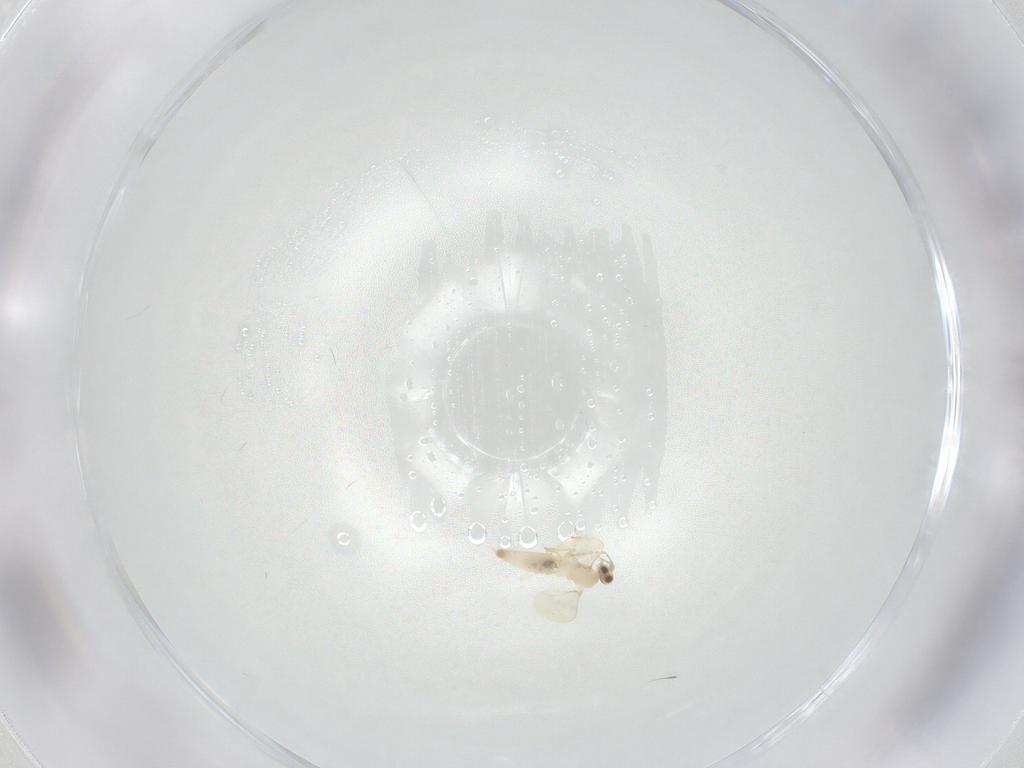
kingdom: Animalia
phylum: Arthropoda
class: Insecta
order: Diptera
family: Cecidomyiidae
